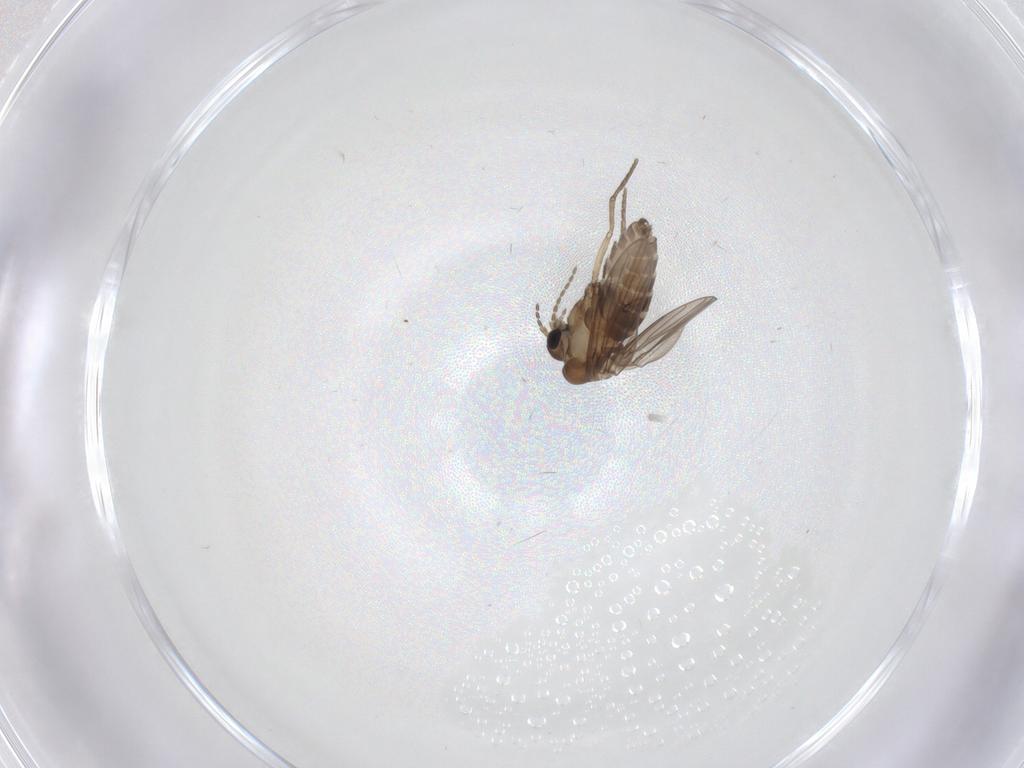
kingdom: Animalia
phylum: Arthropoda
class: Insecta
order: Diptera
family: Psychodidae
